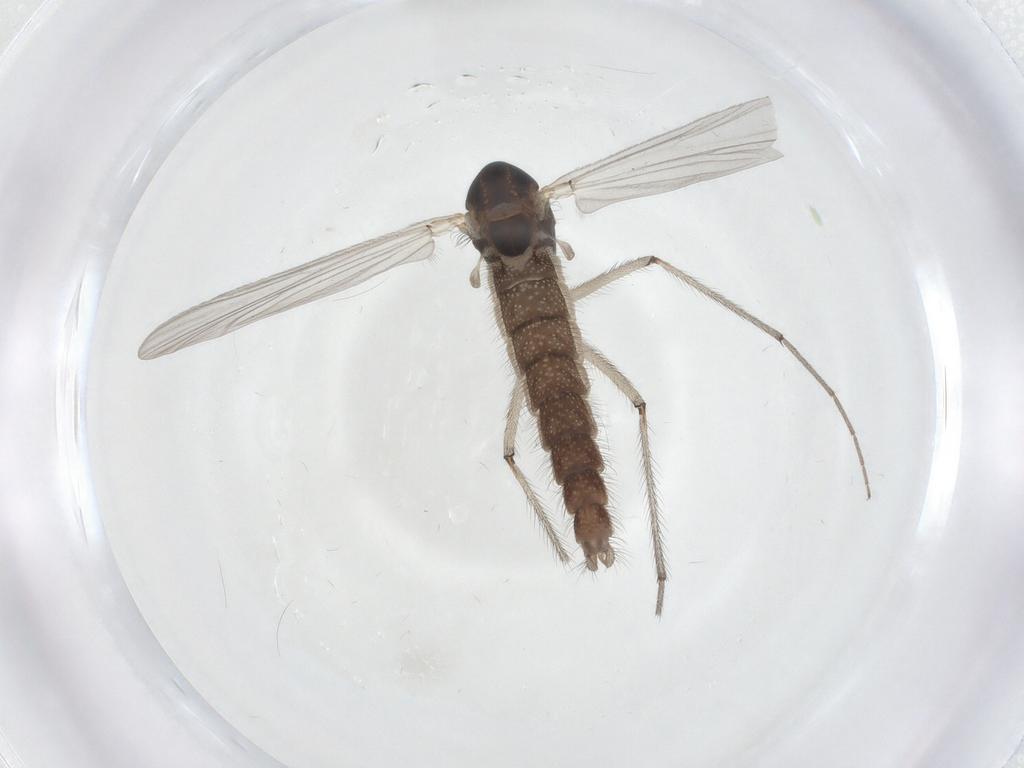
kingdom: Animalia
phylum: Arthropoda
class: Insecta
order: Diptera
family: Chironomidae
